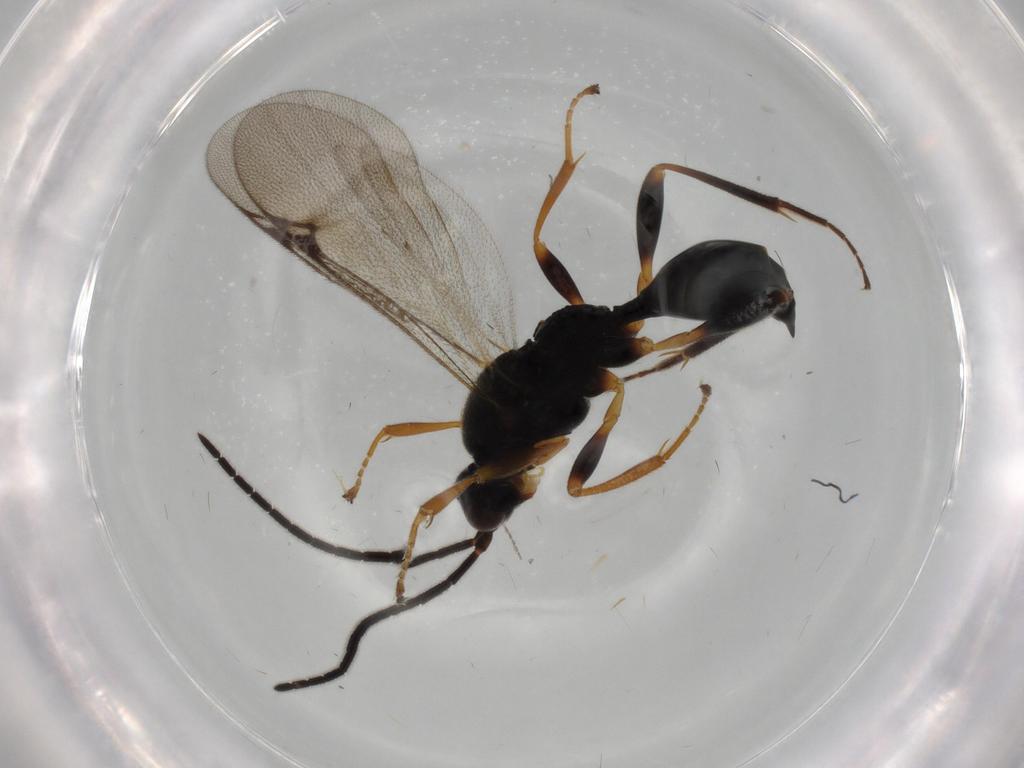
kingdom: Animalia
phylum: Arthropoda
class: Insecta
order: Hymenoptera
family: Proctotrupidae
